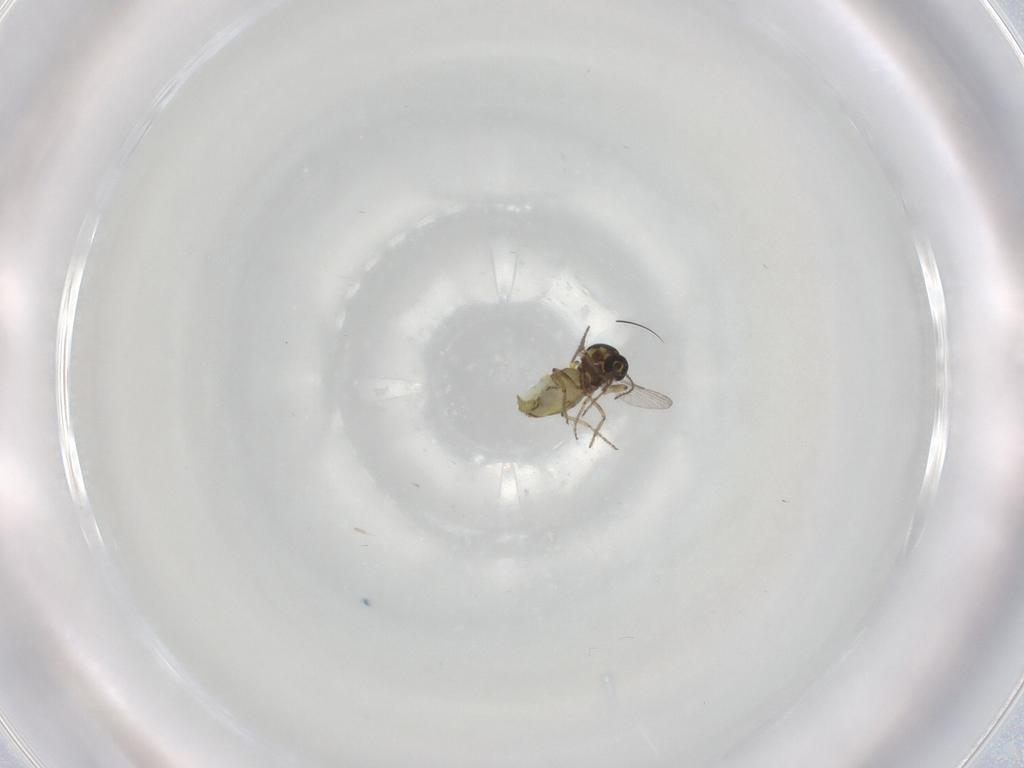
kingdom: Animalia
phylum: Arthropoda
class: Insecta
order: Diptera
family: Ceratopogonidae
